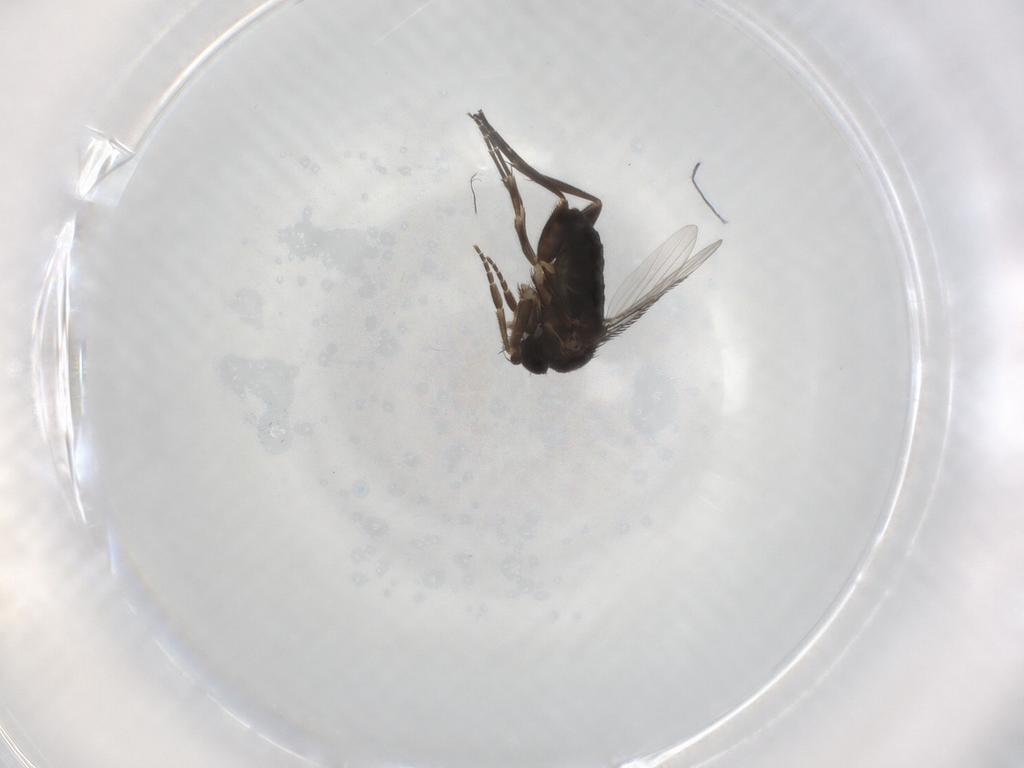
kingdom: Animalia
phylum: Arthropoda
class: Insecta
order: Diptera
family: Phoridae
